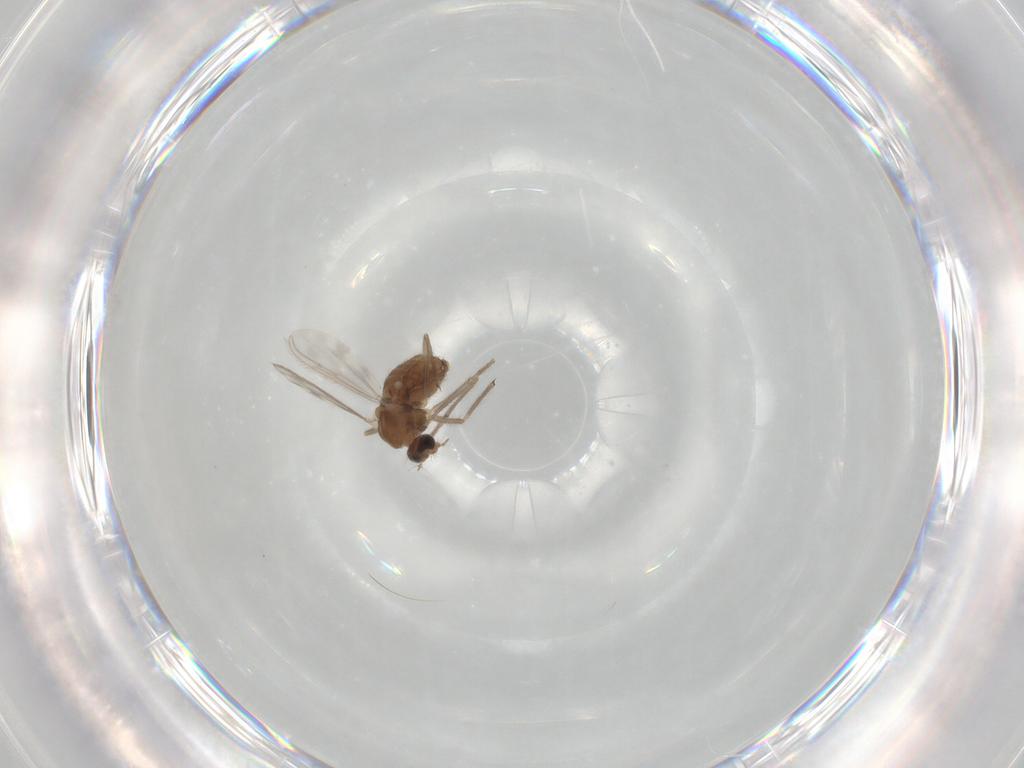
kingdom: Animalia
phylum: Arthropoda
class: Insecta
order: Diptera
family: Chironomidae
